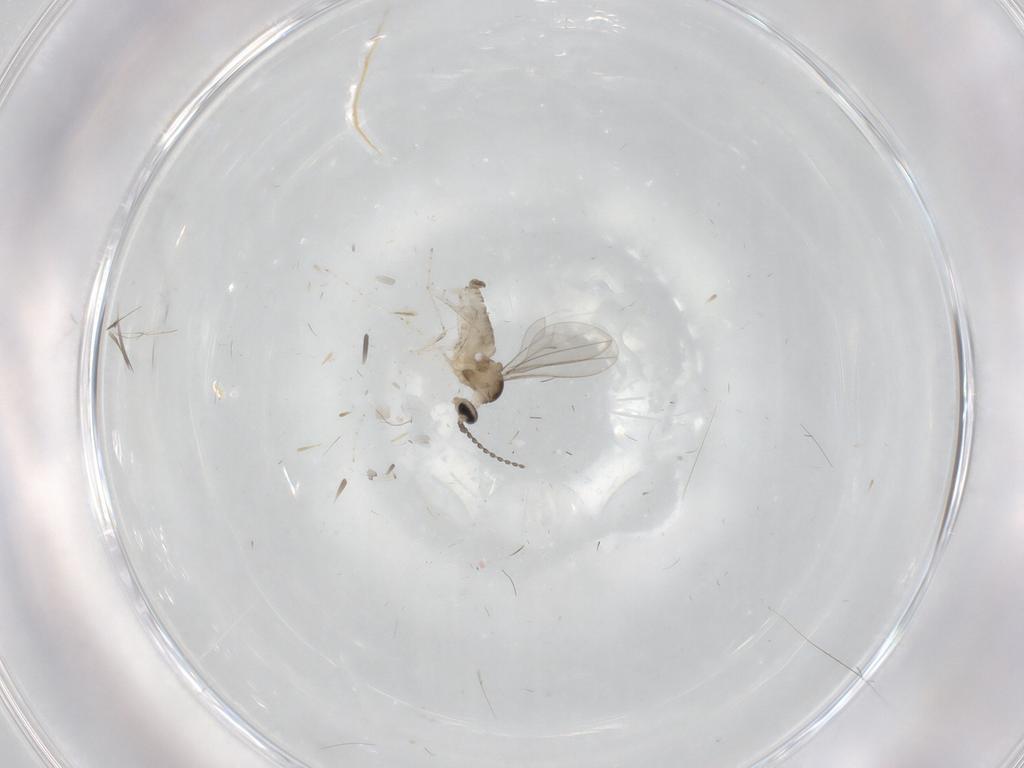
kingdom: Animalia
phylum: Arthropoda
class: Insecta
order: Diptera
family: Cecidomyiidae
